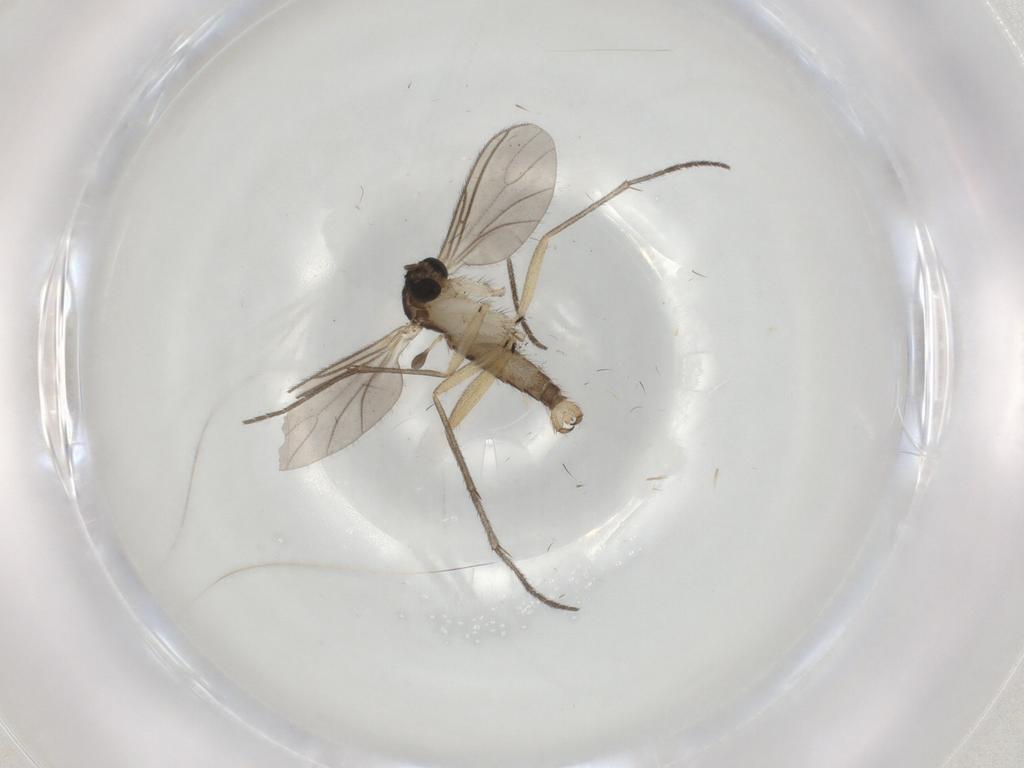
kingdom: Animalia
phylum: Arthropoda
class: Insecta
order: Diptera
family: Sciaridae
